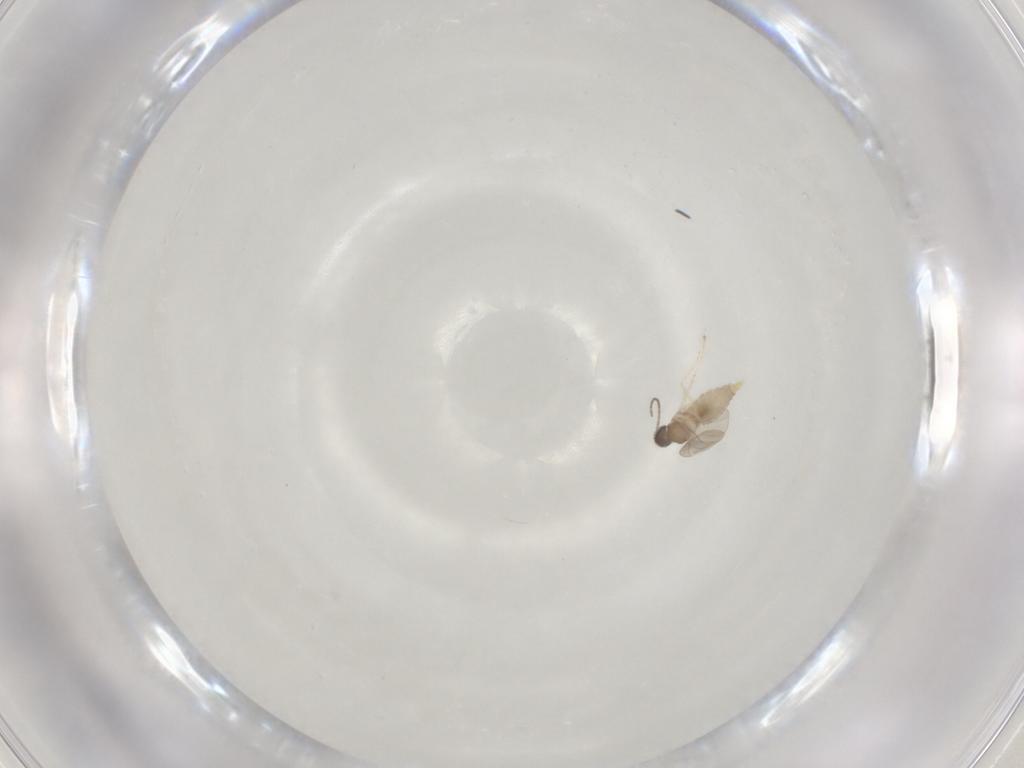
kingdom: Animalia
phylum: Arthropoda
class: Insecta
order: Diptera
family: Cecidomyiidae
